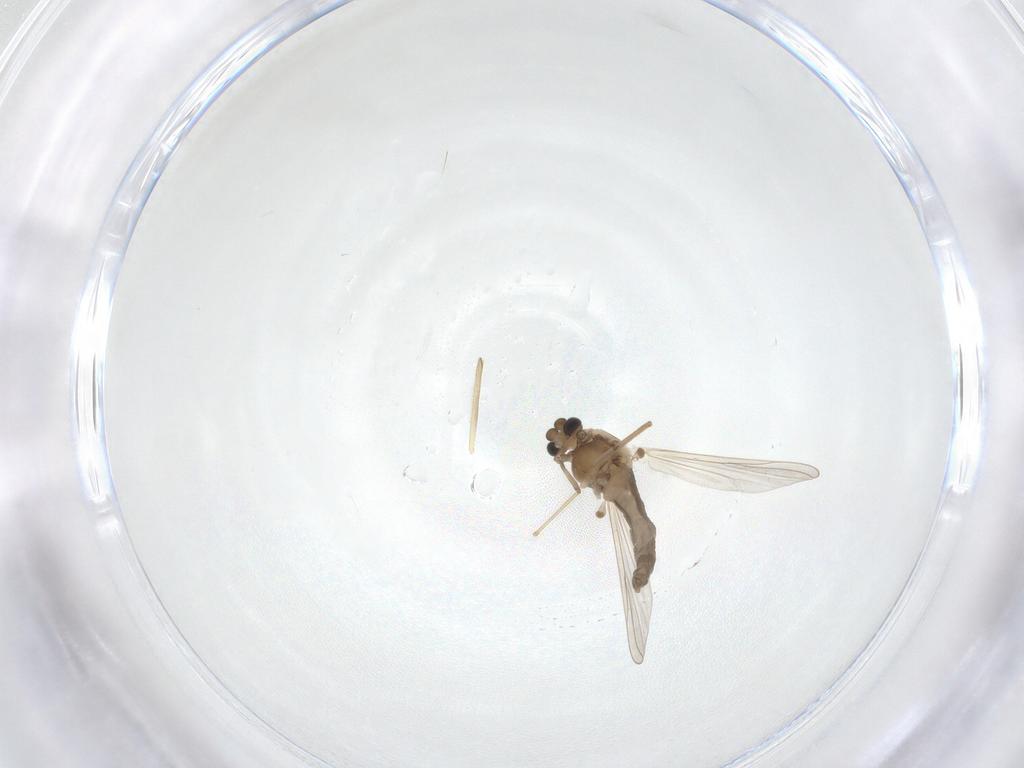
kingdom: Animalia
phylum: Arthropoda
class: Insecta
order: Diptera
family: Chironomidae
